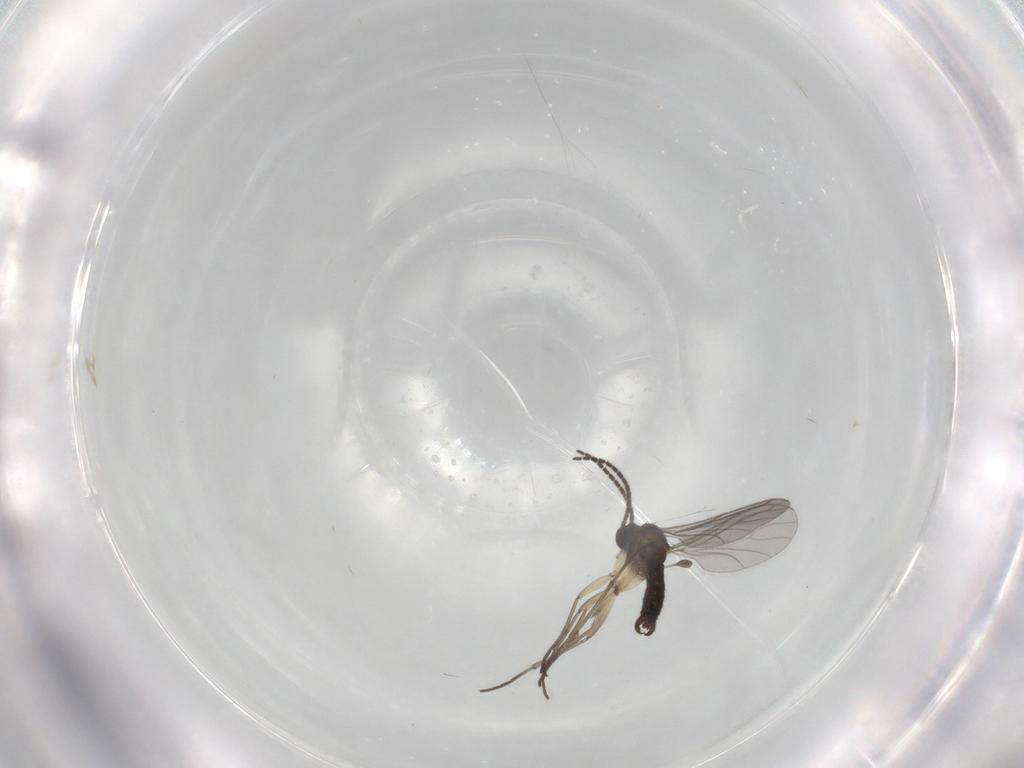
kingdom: Animalia
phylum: Arthropoda
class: Insecta
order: Diptera
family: Sciaridae
